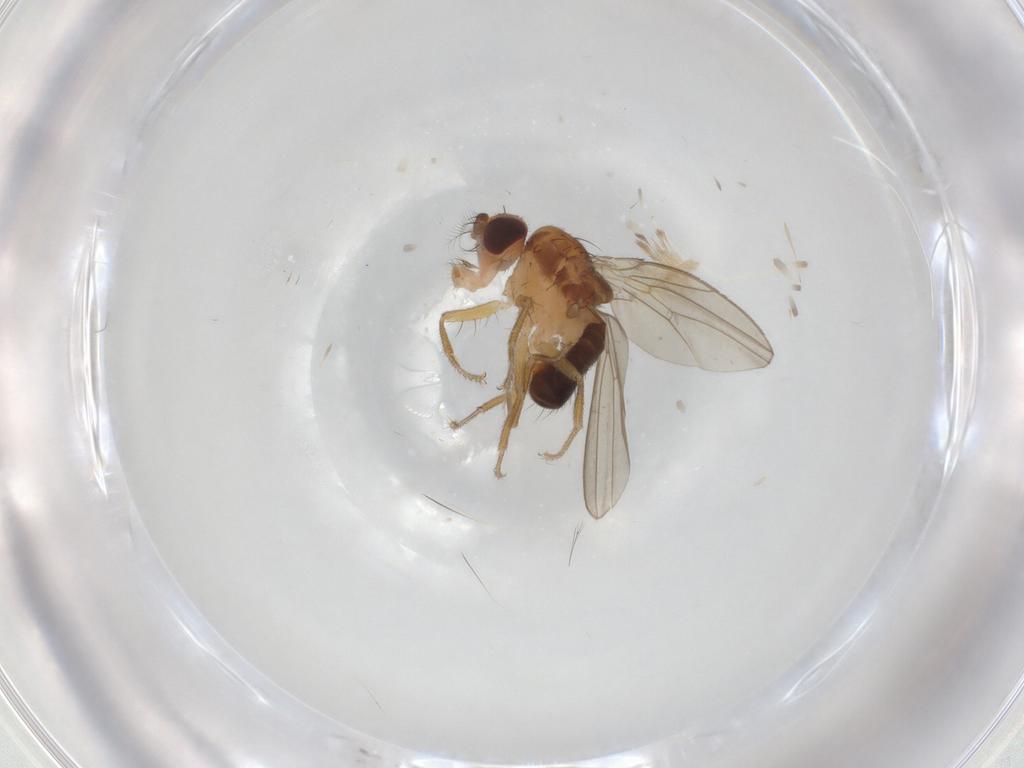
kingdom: Animalia
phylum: Arthropoda
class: Insecta
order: Diptera
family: Drosophilidae
